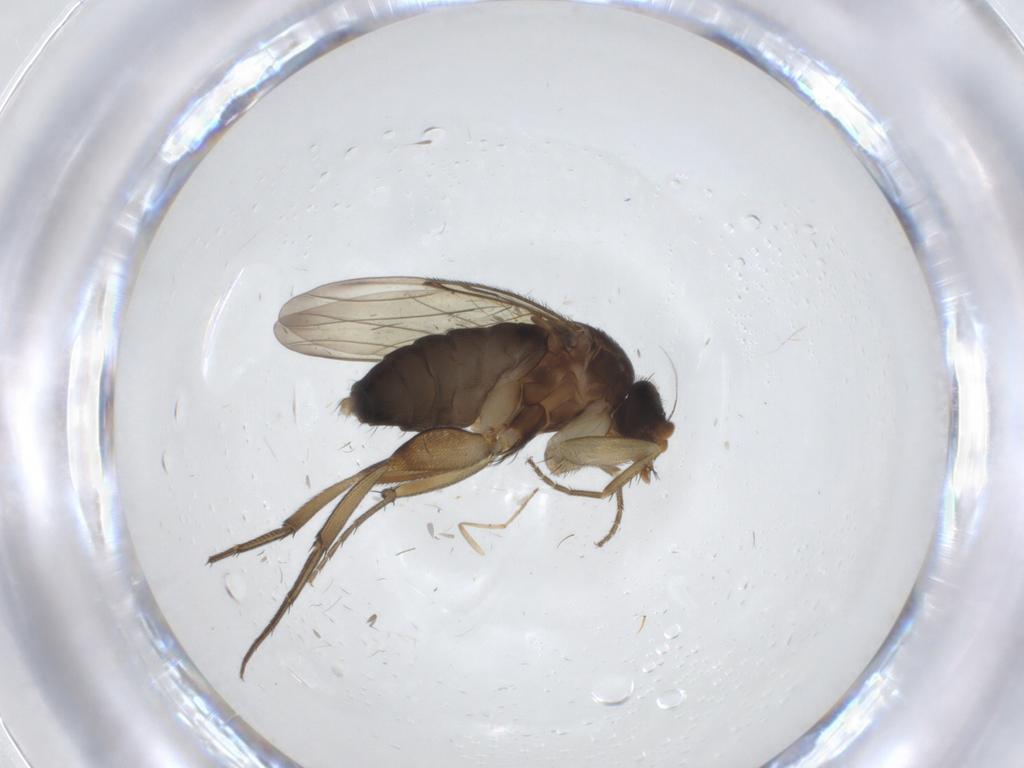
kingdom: Animalia
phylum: Arthropoda
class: Insecta
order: Diptera
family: Phoridae
